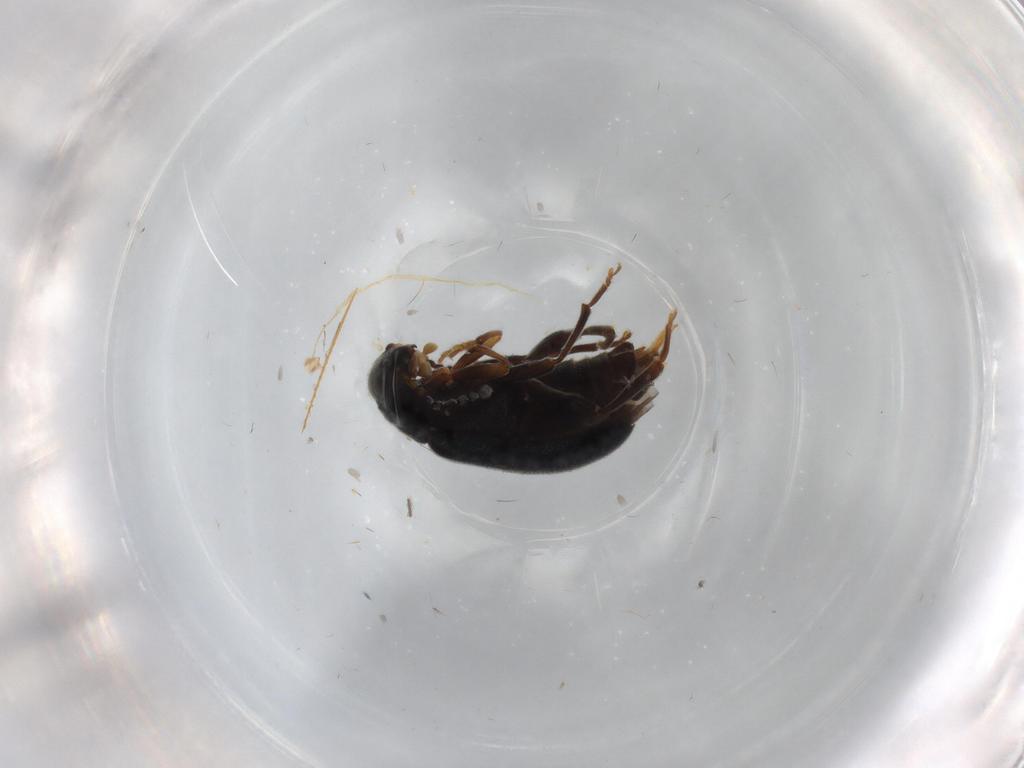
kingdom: Animalia
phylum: Arthropoda
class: Insecta
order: Coleoptera
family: Aderidae
